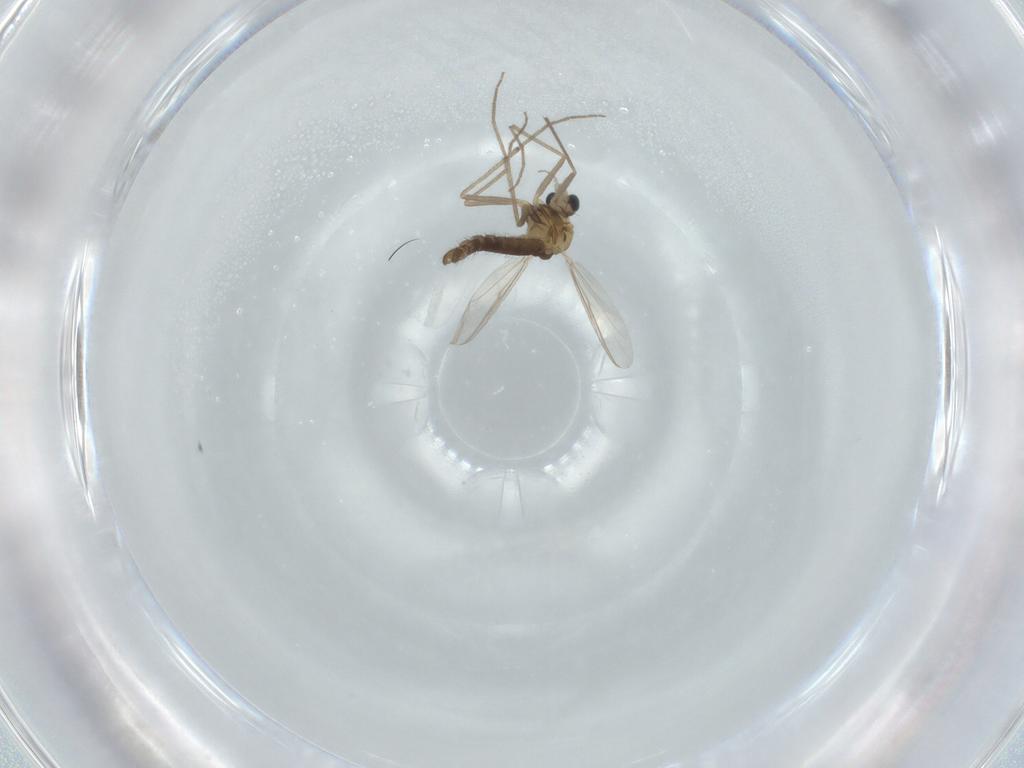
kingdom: Animalia
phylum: Arthropoda
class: Insecta
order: Diptera
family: Chironomidae
